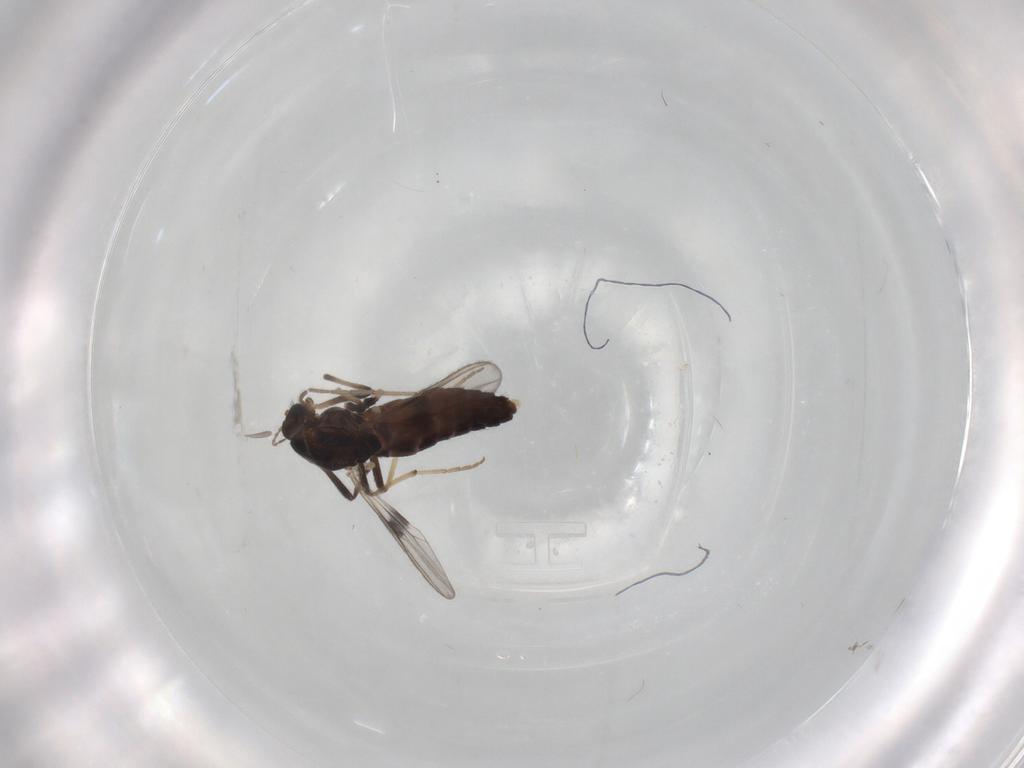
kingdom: Animalia
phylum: Arthropoda
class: Insecta
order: Diptera
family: Chironomidae
